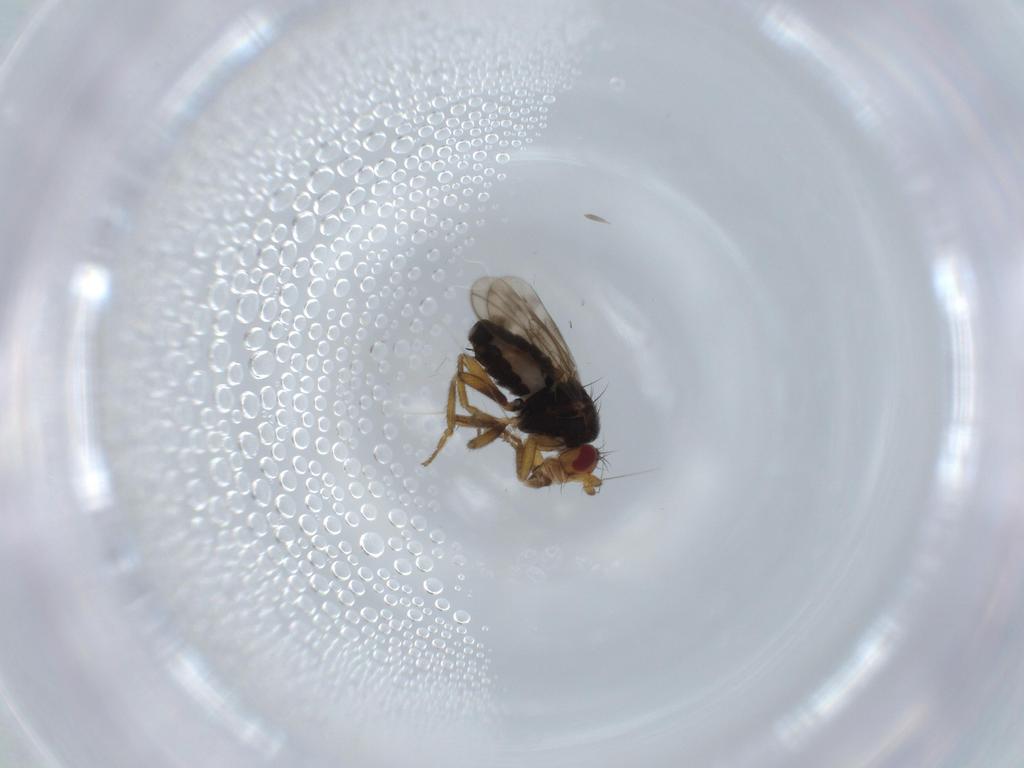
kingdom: Animalia
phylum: Arthropoda
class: Insecta
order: Diptera
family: Sphaeroceridae
